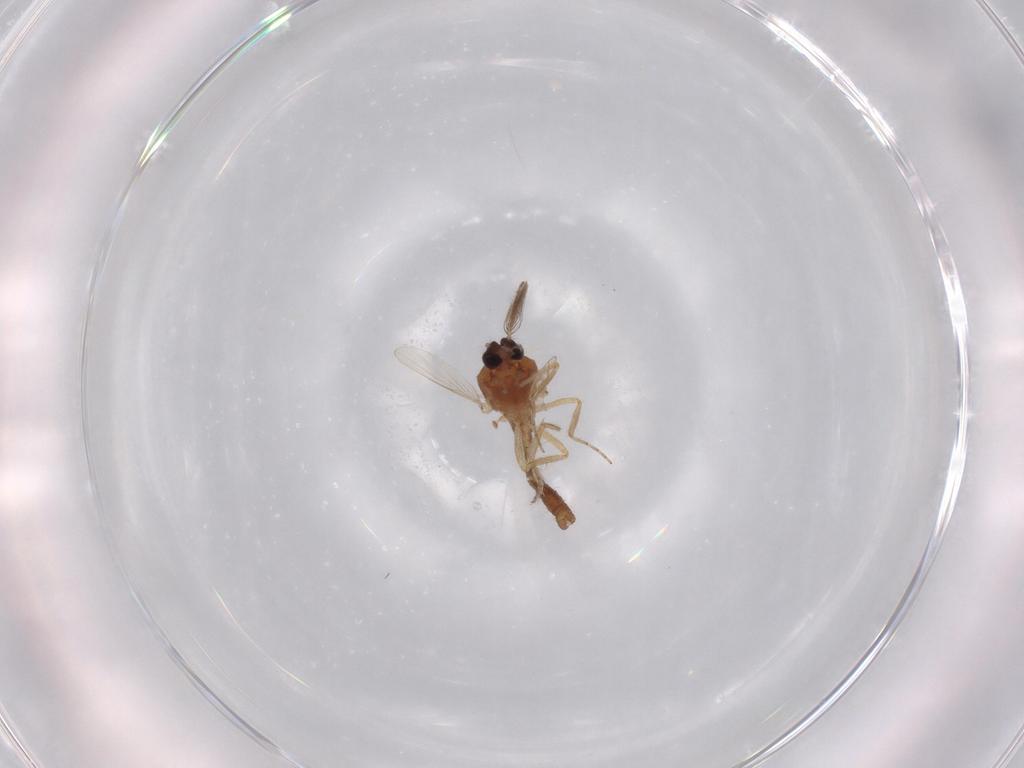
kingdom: Animalia
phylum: Arthropoda
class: Insecta
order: Diptera
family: Ceratopogonidae
